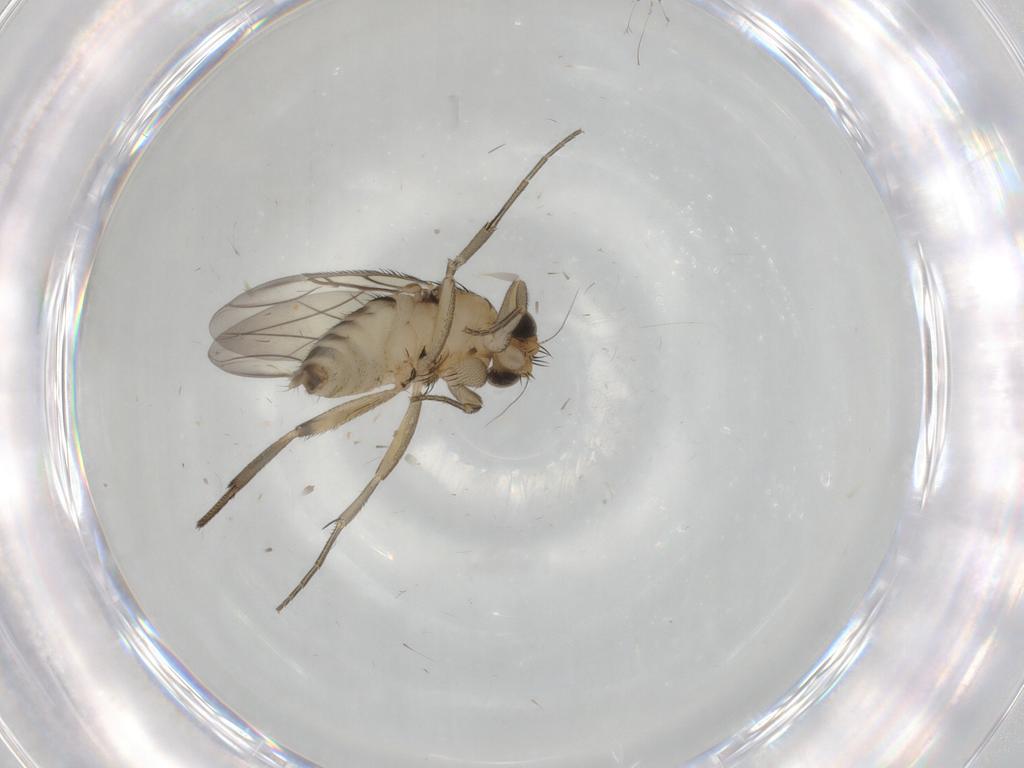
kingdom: Animalia
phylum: Arthropoda
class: Insecta
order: Diptera
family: Phoridae
